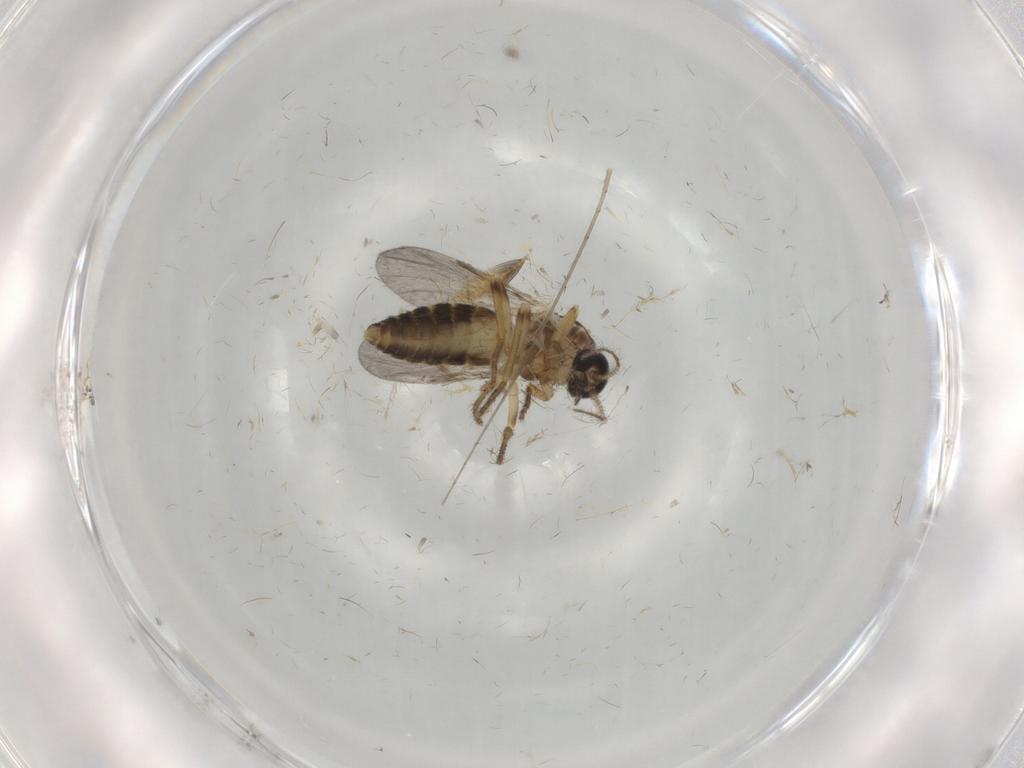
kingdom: Animalia
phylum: Arthropoda
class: Insecta
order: Diptera
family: Ceratopogonidae
